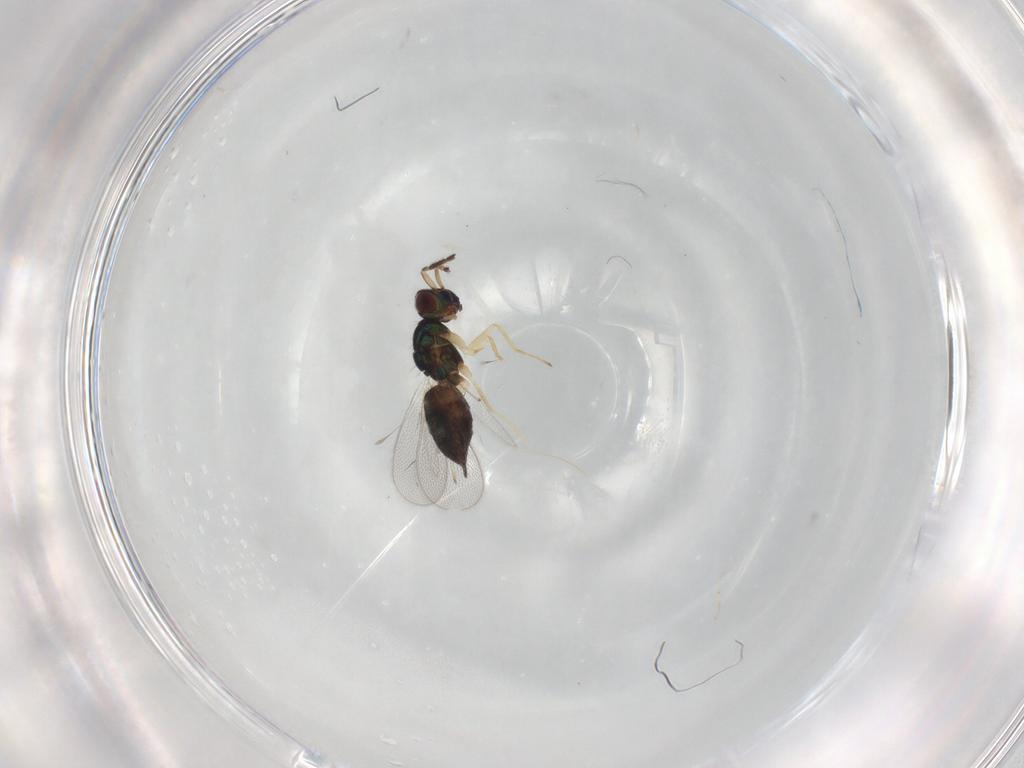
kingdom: Animalia
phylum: Arthropoda
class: Insecta
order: Hymenoptera
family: Eulophidae
